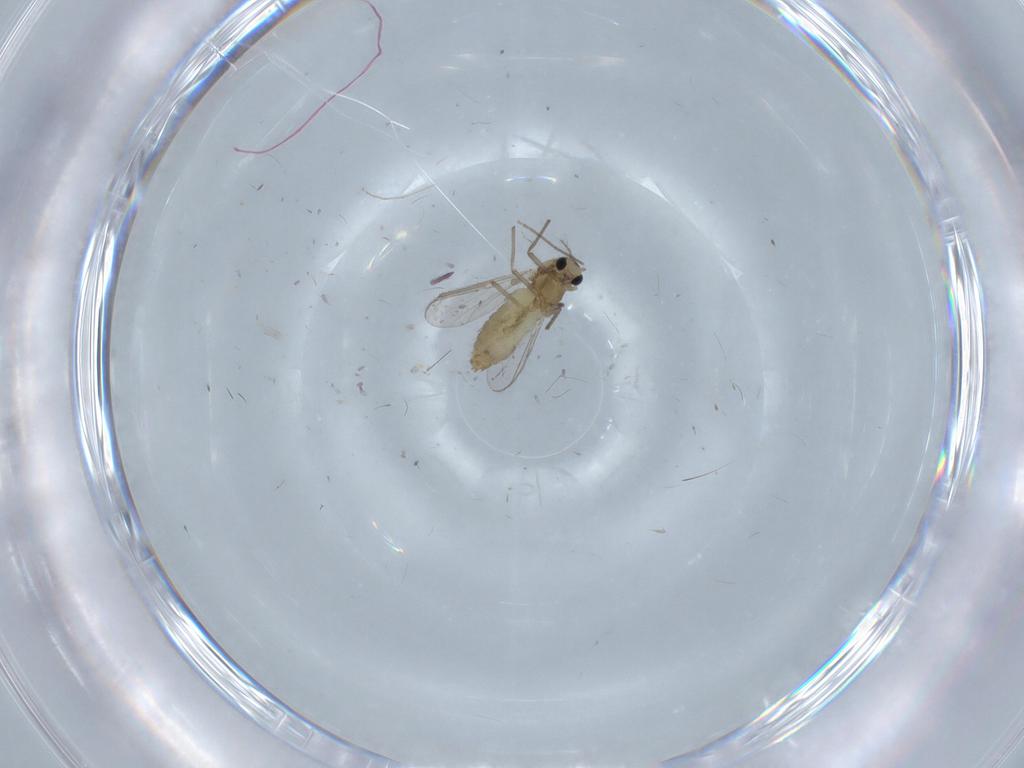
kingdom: Animalia
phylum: Arthropoda
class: Insecta
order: Diptera
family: Chironomidae
